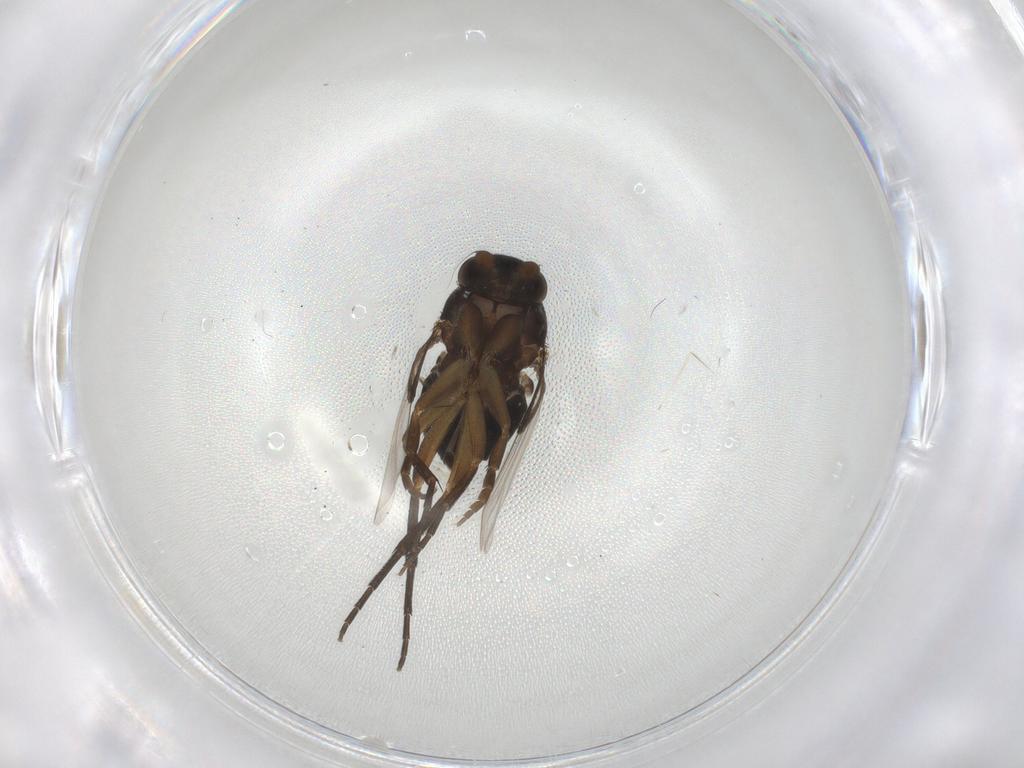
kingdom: Animalia
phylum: Arthropoda
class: Insecta
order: Diptera
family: Phoridae
